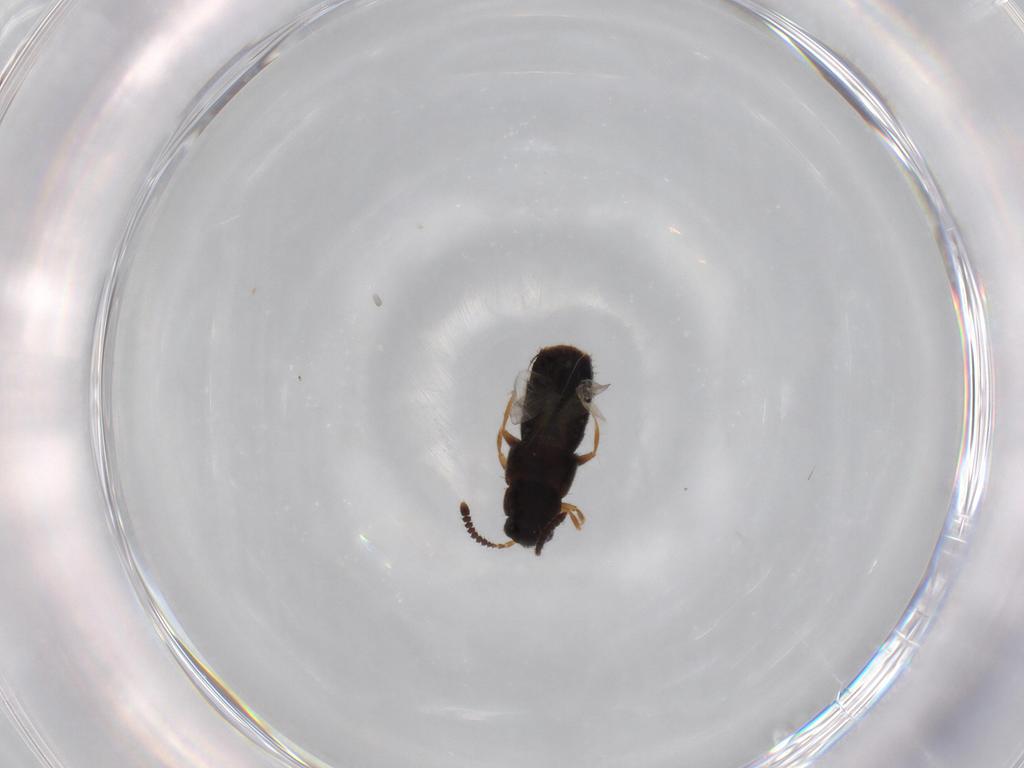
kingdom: Animalia
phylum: Arthropoda
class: Insecta
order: Coleoptera
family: Staphylinidae
